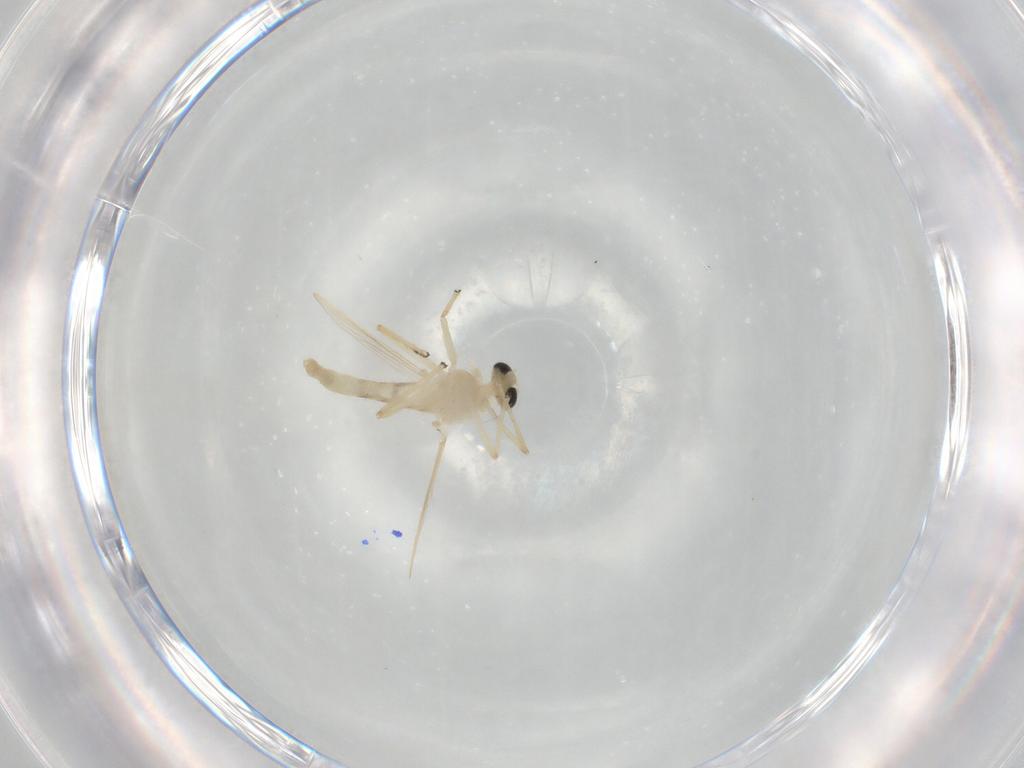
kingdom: Animalia
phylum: Arthropoda
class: Insecta
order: Diptera
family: Chironomidae
